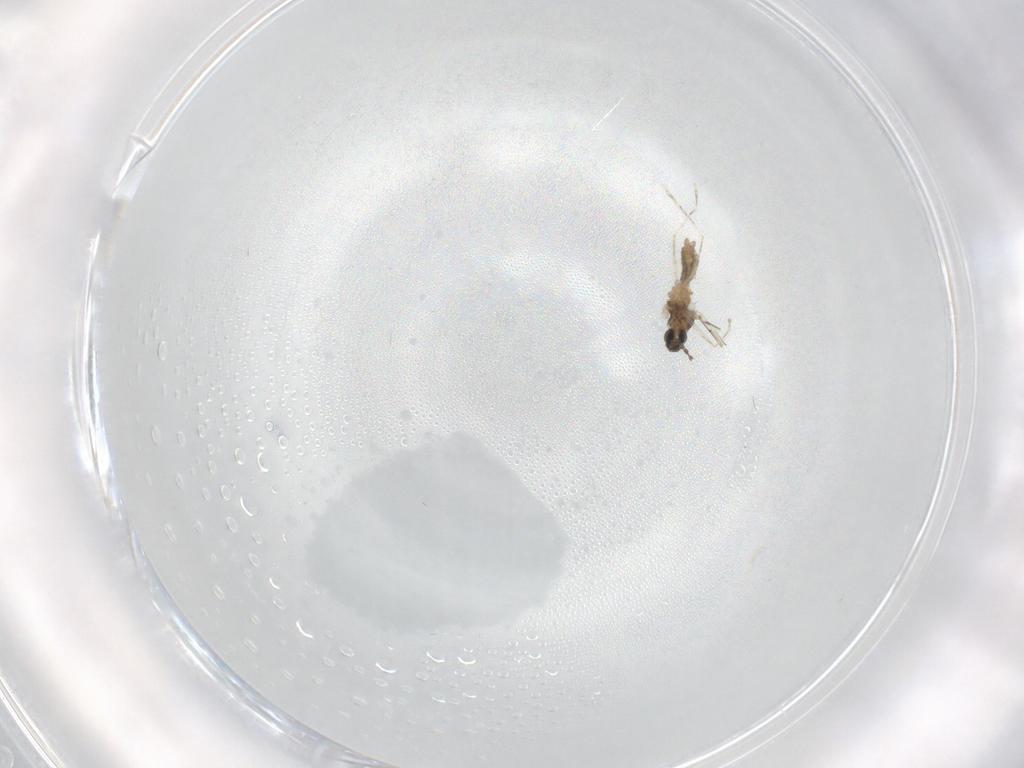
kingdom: Animalia
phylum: Arthropoda
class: Insecta
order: Diptera
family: Cecidomyiidae
